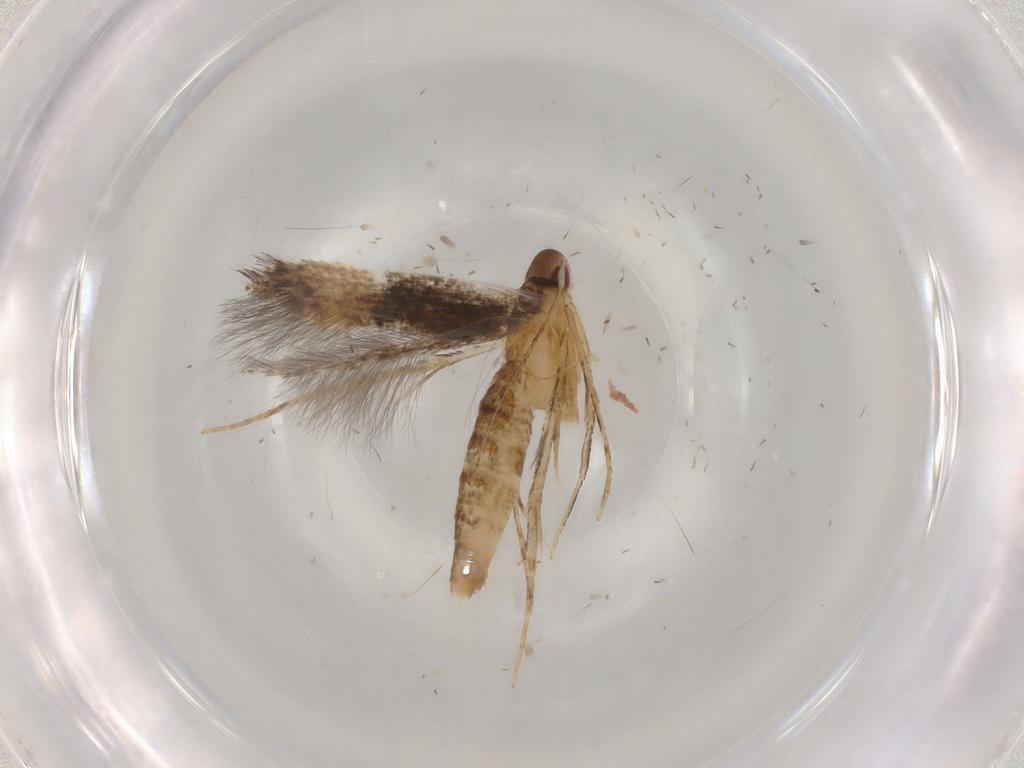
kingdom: Animalia
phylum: Arthropoda
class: Insecta
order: Lepidoptera
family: Cosmopterigidae
